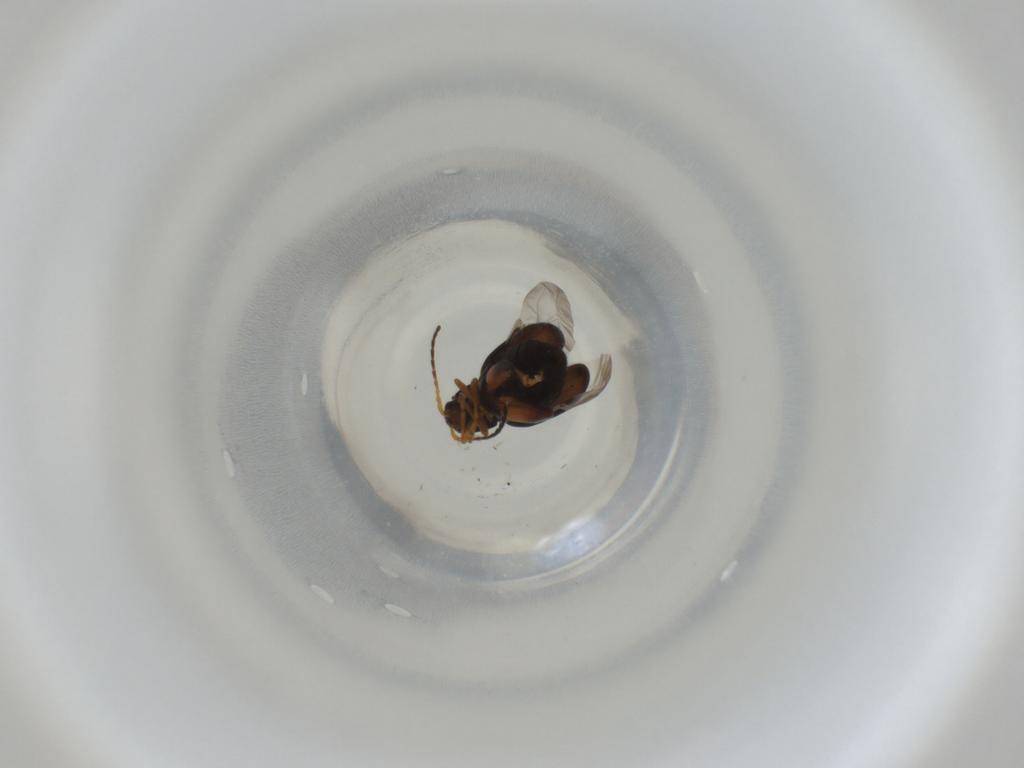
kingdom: Animalia
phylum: Arthropoda
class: Insecta
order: Coleoptera
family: Chrysomelidae
